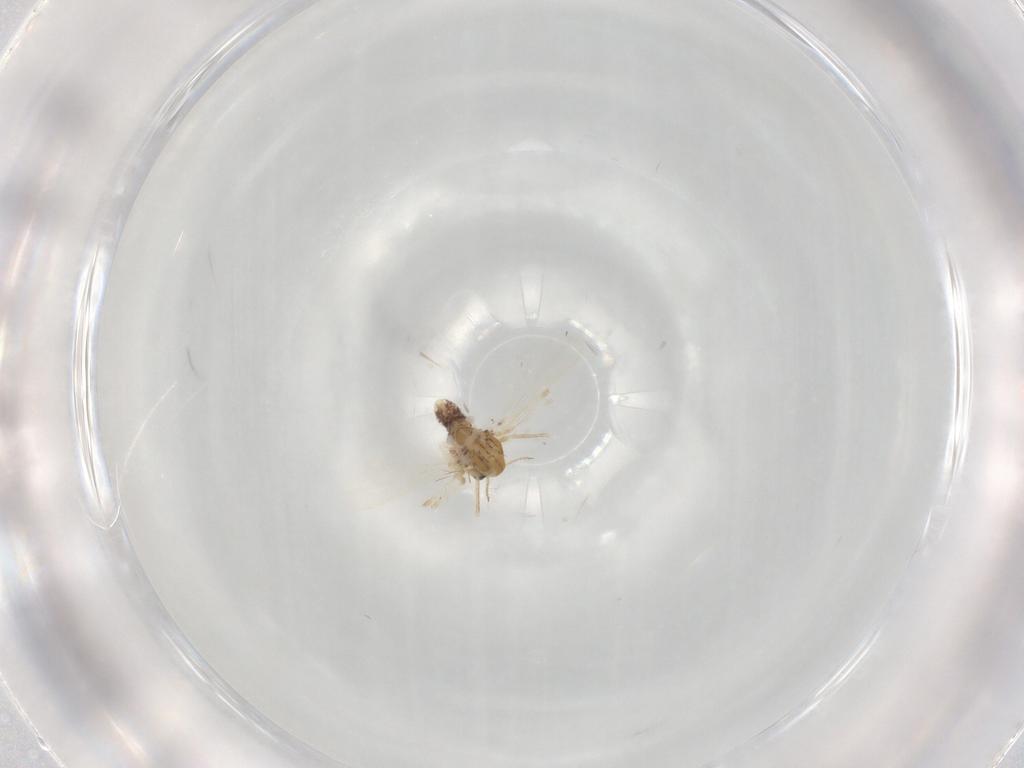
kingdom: Animalia
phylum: Arthropoda
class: Insecta
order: Diptera
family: Chironomidae
